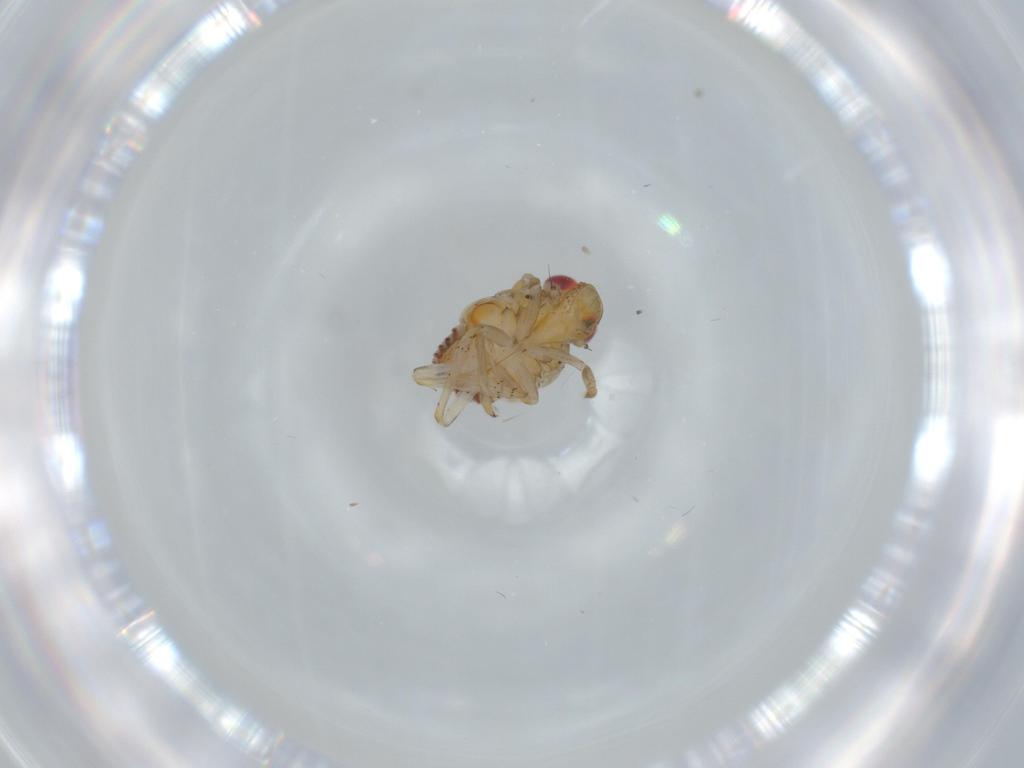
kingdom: Animalia
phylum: Arthropoda
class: Insecta
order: Hemiptera
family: Issidae
